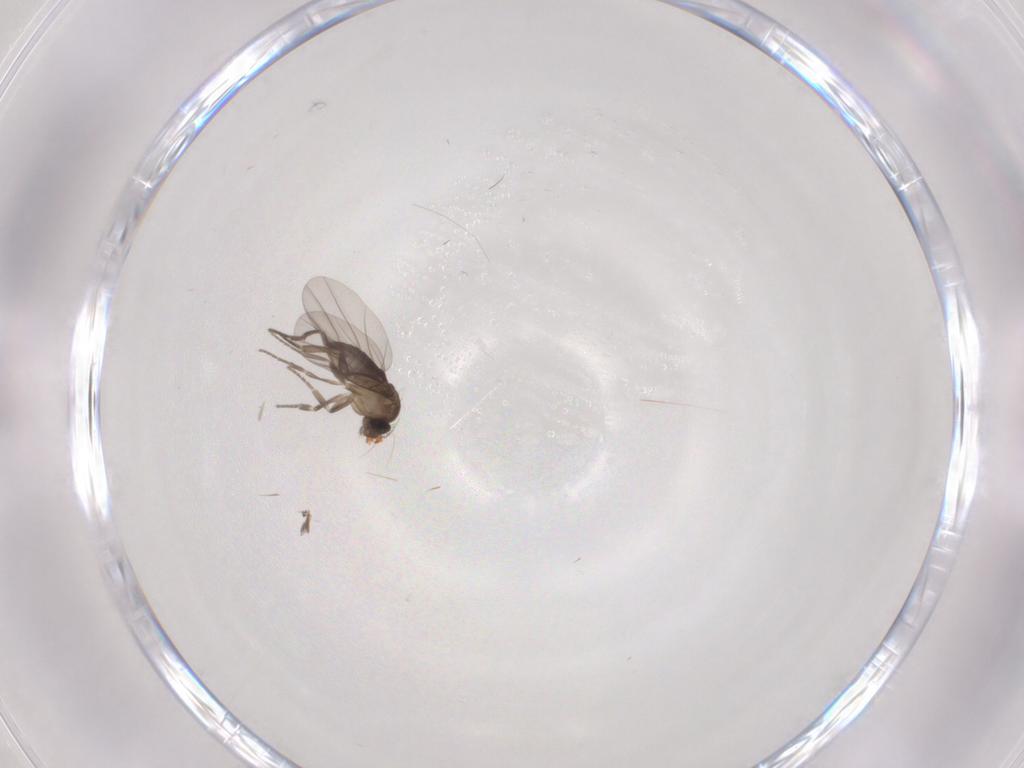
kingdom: Animalia
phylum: Arthropoda
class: Insecta
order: Diptera
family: Phoridae
